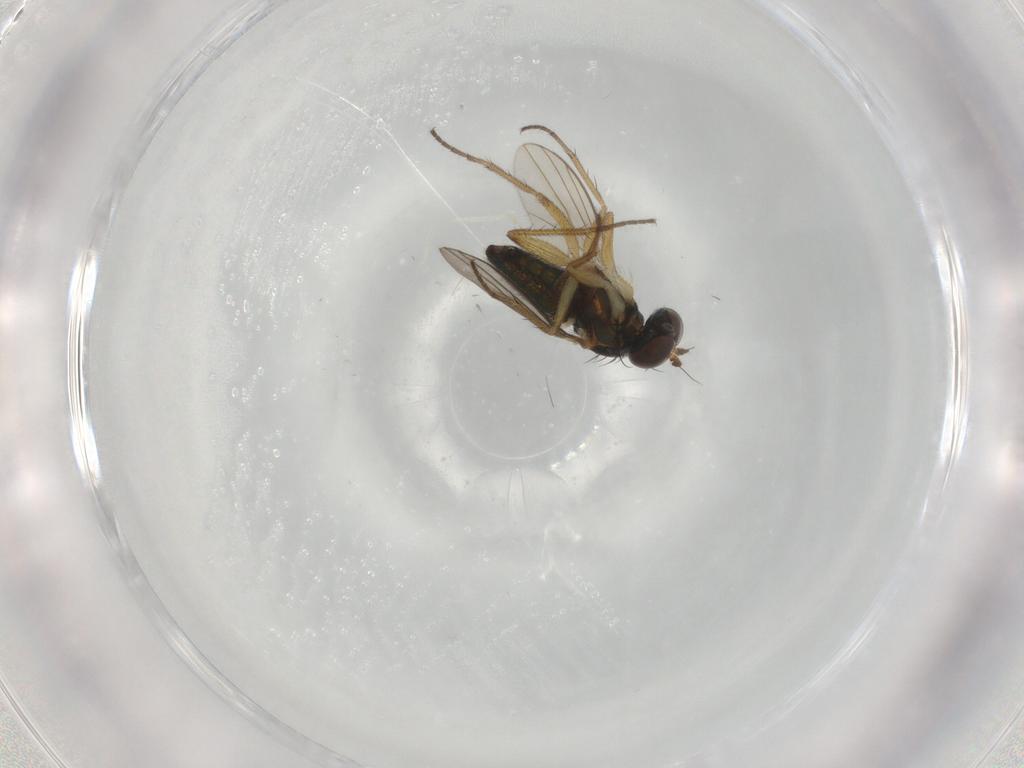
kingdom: Animalia
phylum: Arthropoda
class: Insecta
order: Diptera
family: Dolichopodidae
